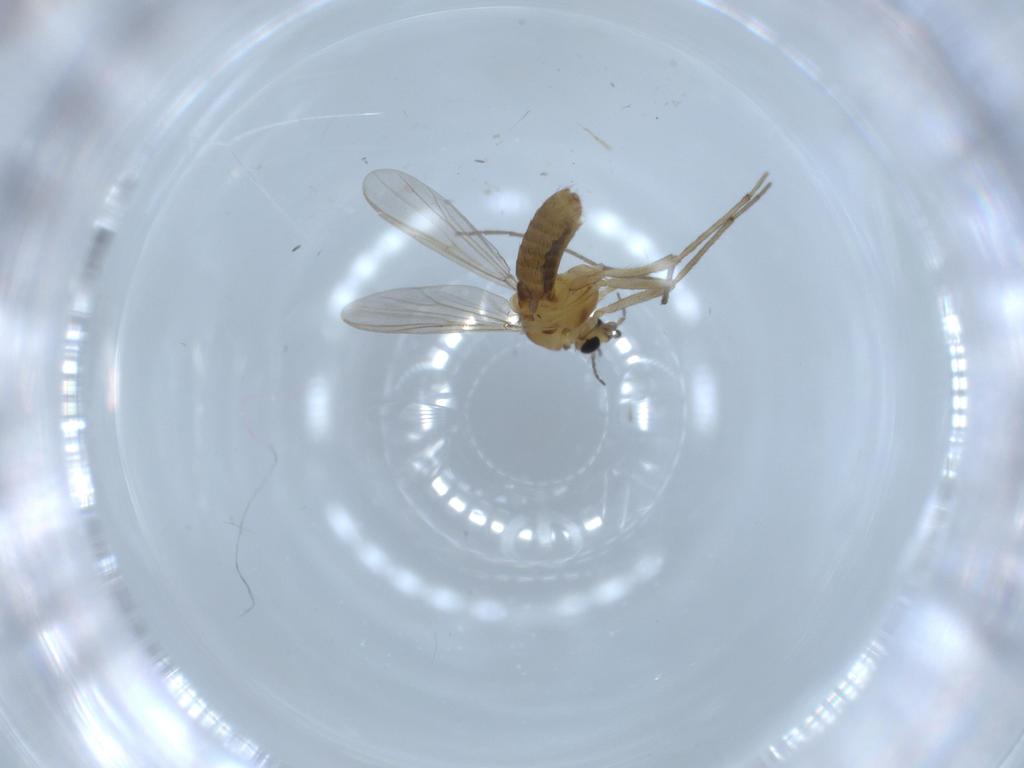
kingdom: Animalia
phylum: Arthropoda
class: Insecta
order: Diptera
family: Chironomidae
